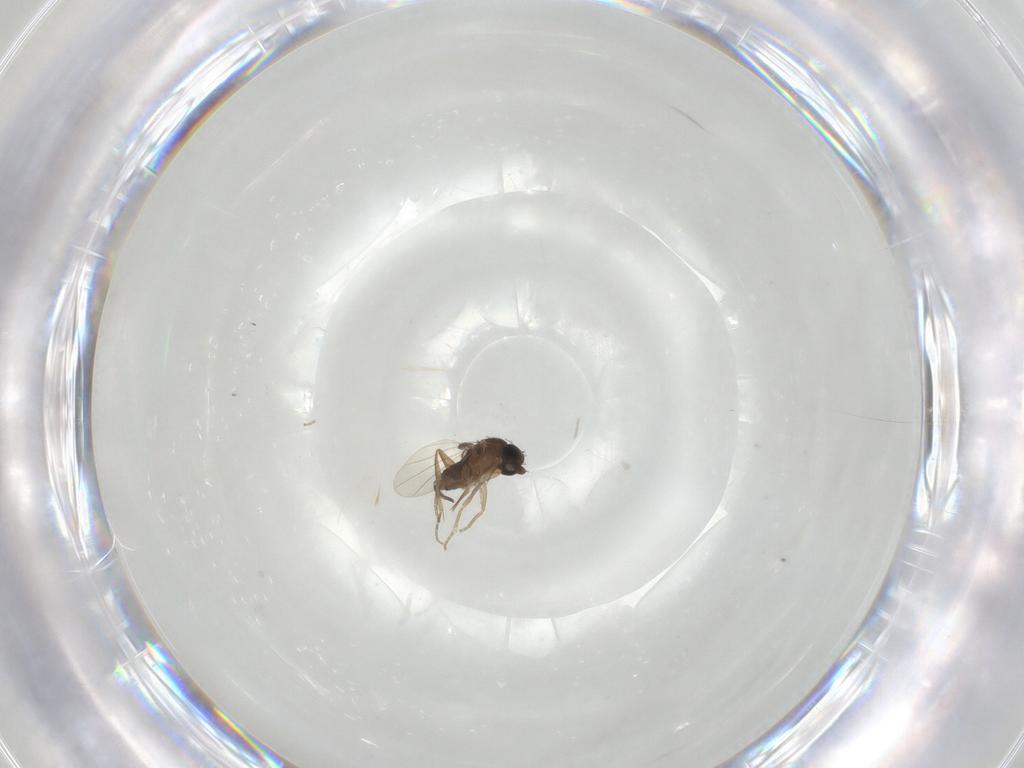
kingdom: Animalia
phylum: Arthropoda
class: Insecta
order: Diptera
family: Phoridae
